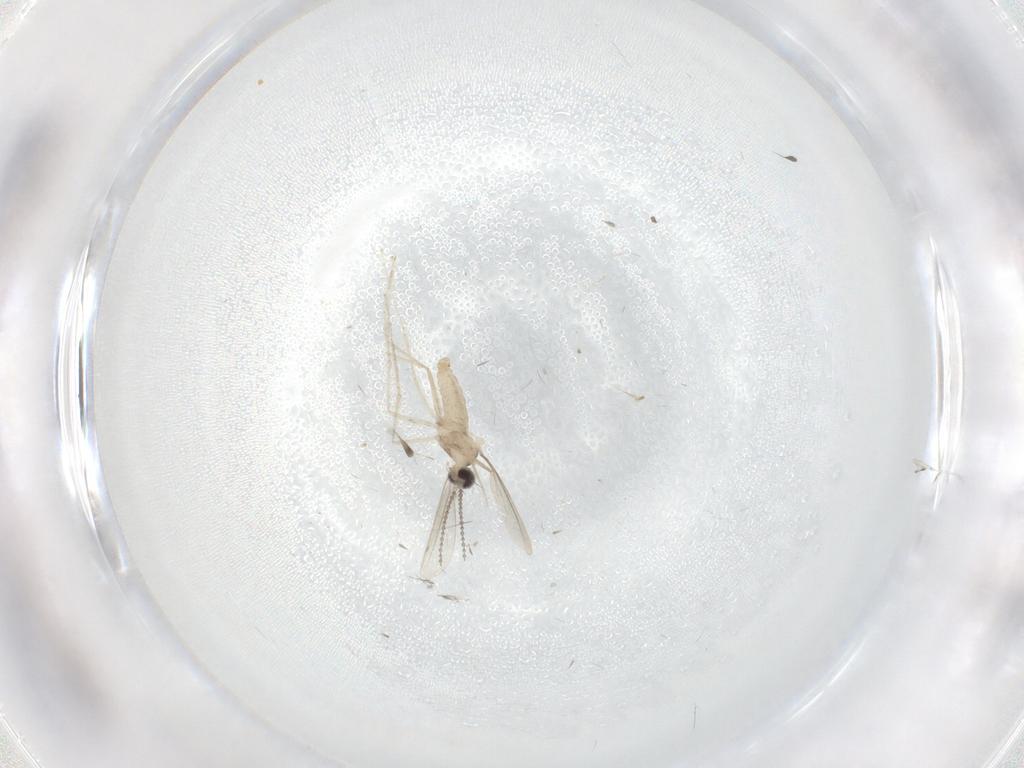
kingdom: Animalia
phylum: Arthropoda
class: Insecta
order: Diptera
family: Cecidomyiidae
